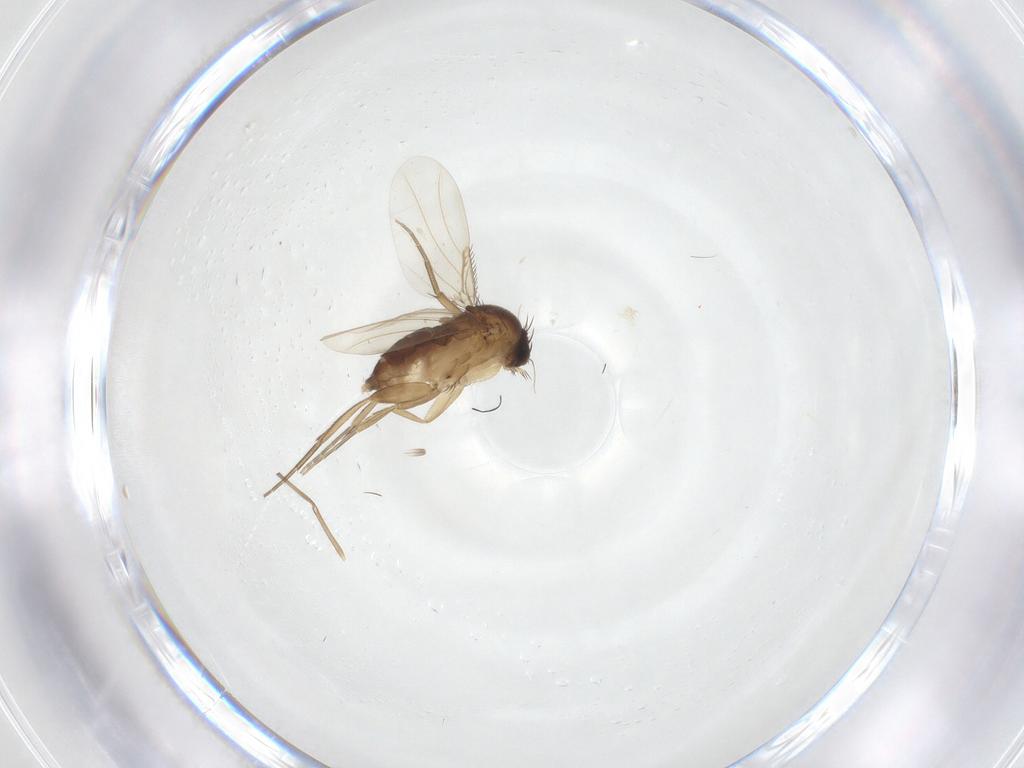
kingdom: Animalia
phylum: Arthropoda
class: Insecta
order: Diptera
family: Phoridae
